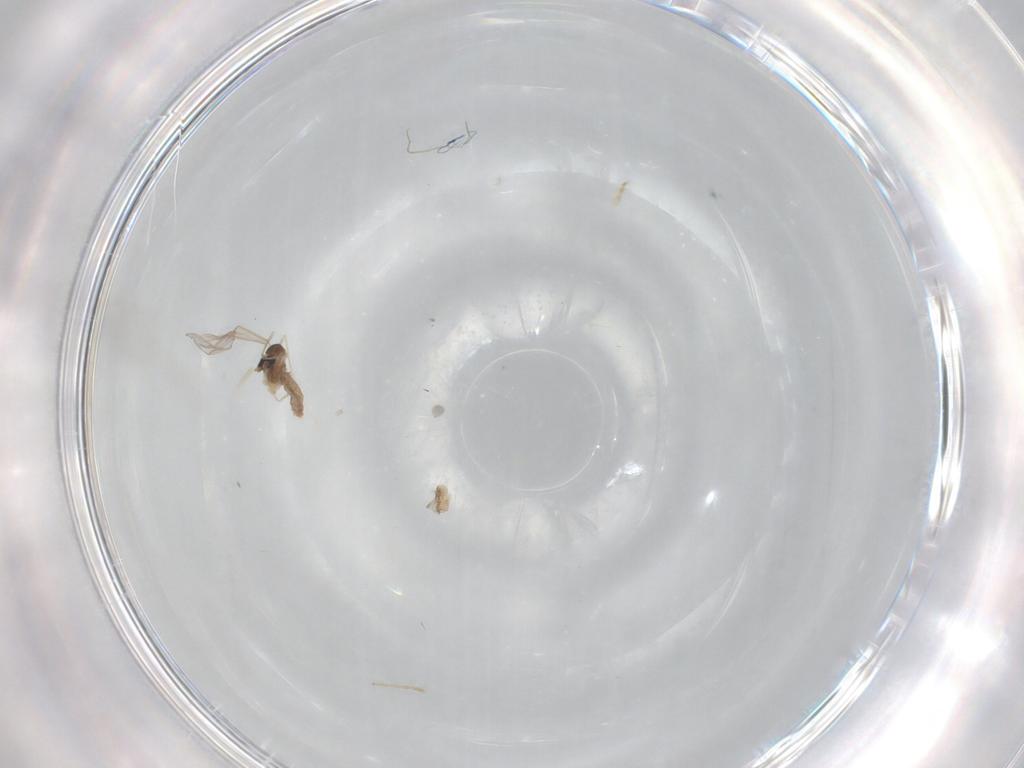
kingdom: Animalia
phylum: Arthropoda
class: Insecta
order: Diptera
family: Glossinidae
